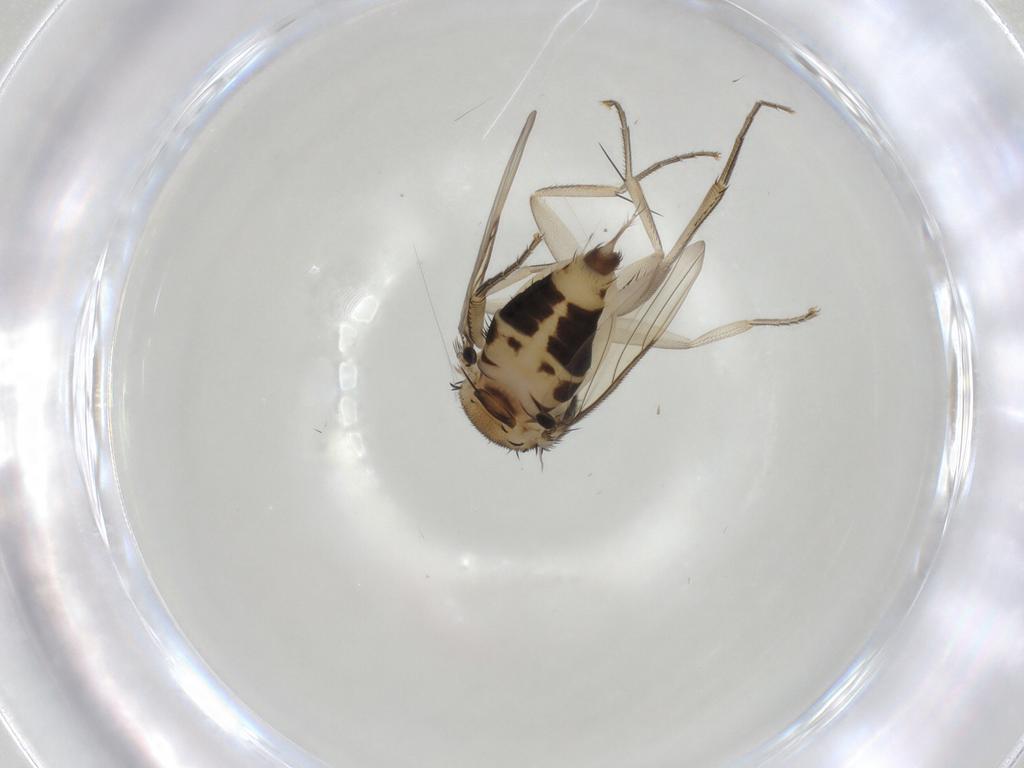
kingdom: Animalia
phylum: Arthropoda
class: Insecta
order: Diptera
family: Phoridae
